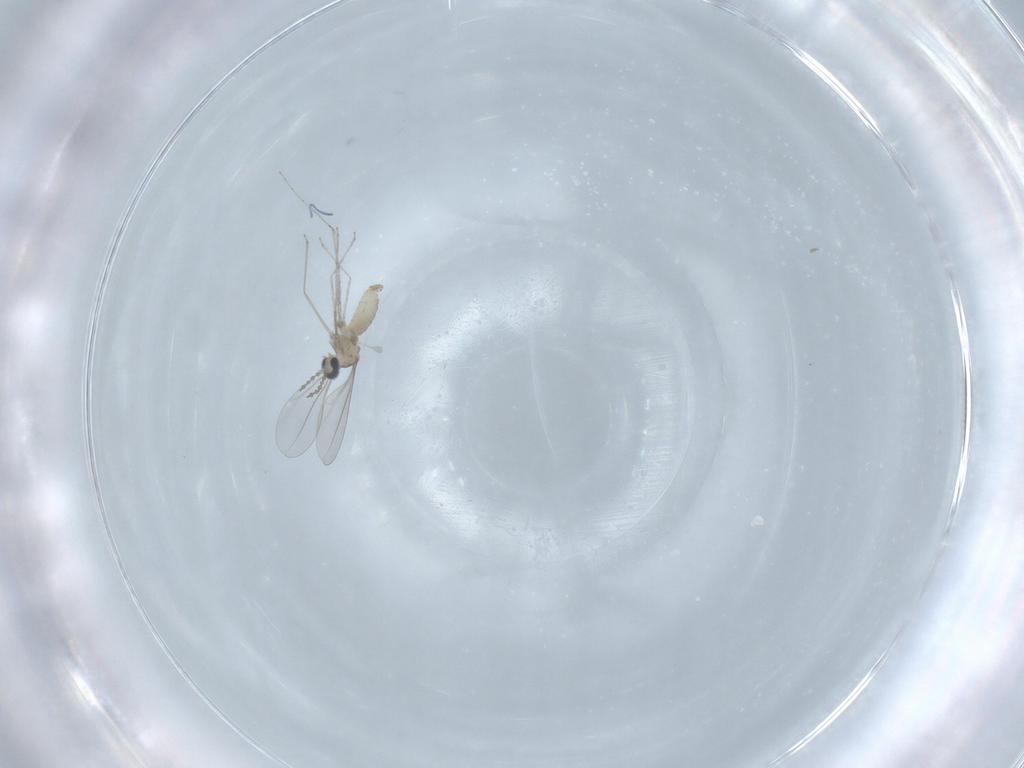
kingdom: Animalia
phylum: Arthropoda
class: Insecta
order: Diptera
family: Cecidomyiidae
